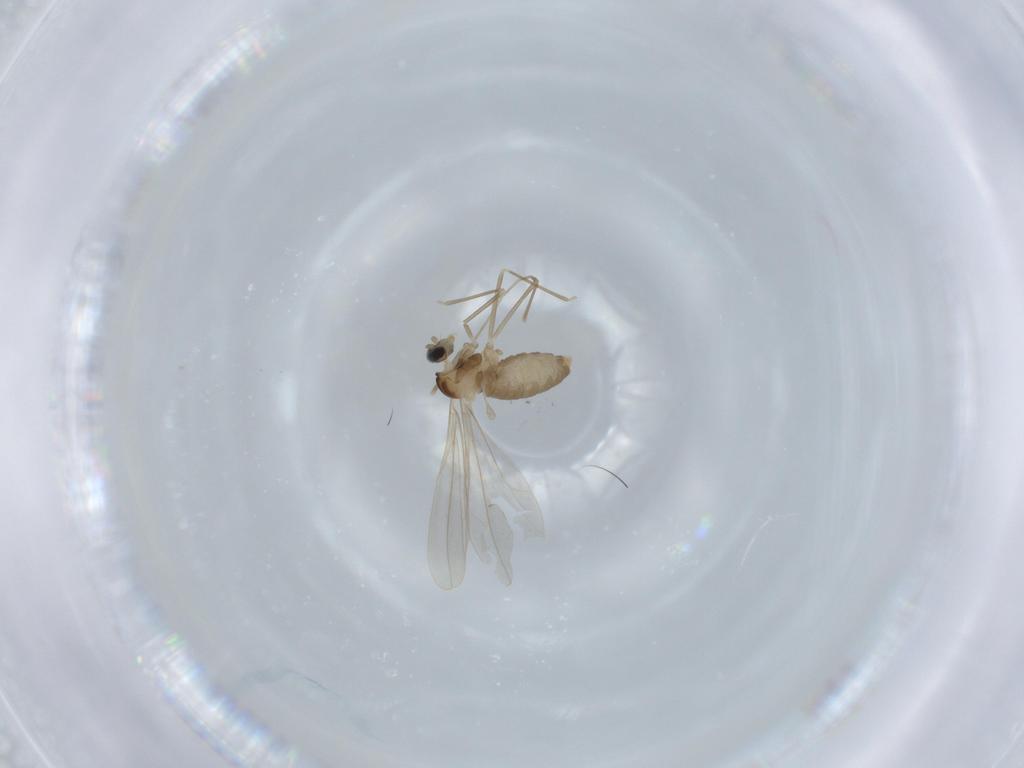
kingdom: Animalia
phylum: Arthropoda
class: Insecta
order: Diptera
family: Cecidomyiidae
